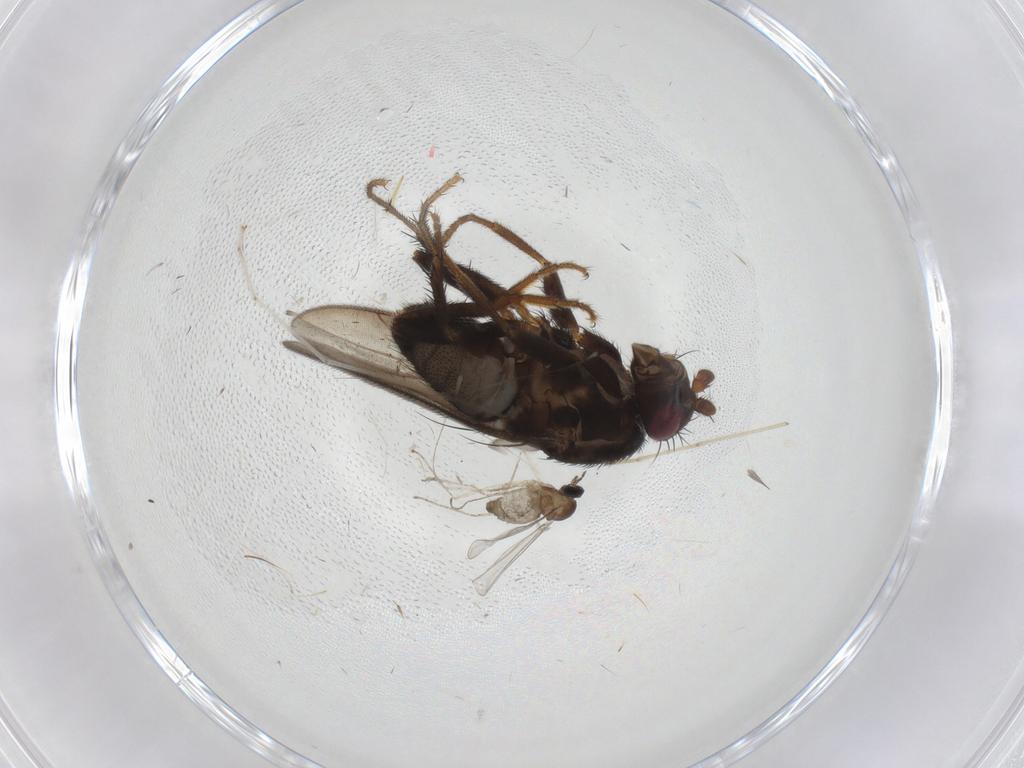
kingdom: Animalia
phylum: Arthropoda
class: Insecta
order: Diptera
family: Sphaeroceridae
